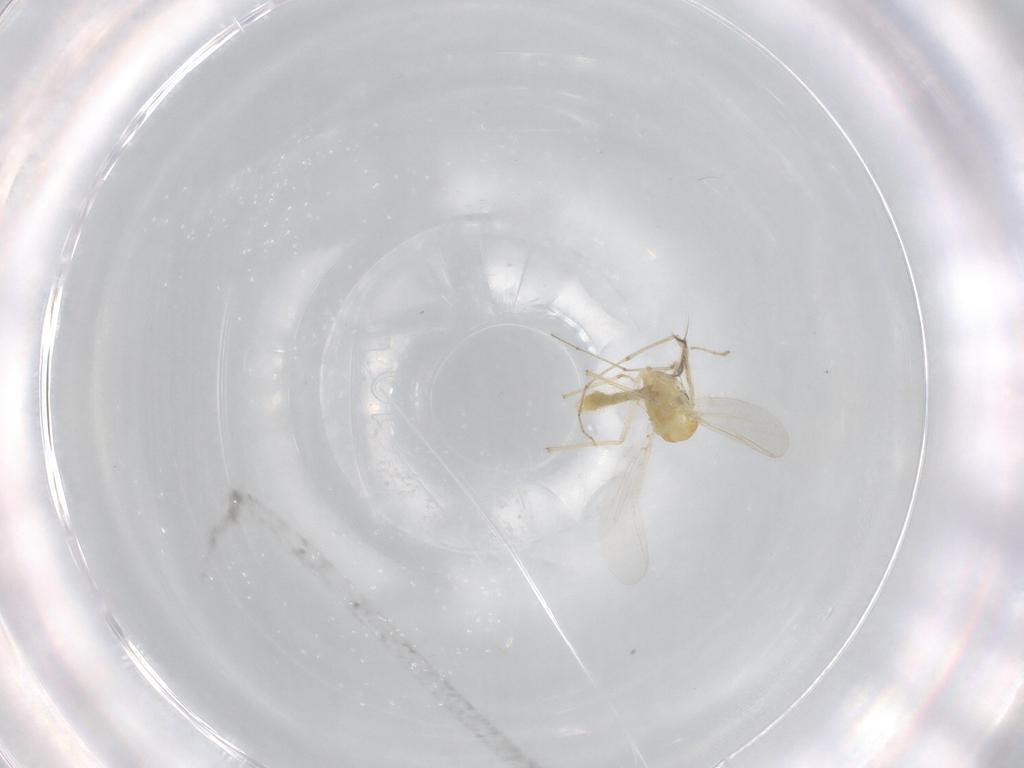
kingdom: Animalia
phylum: Arthropoda
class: Insecta
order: Diptera
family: Chironomidae
